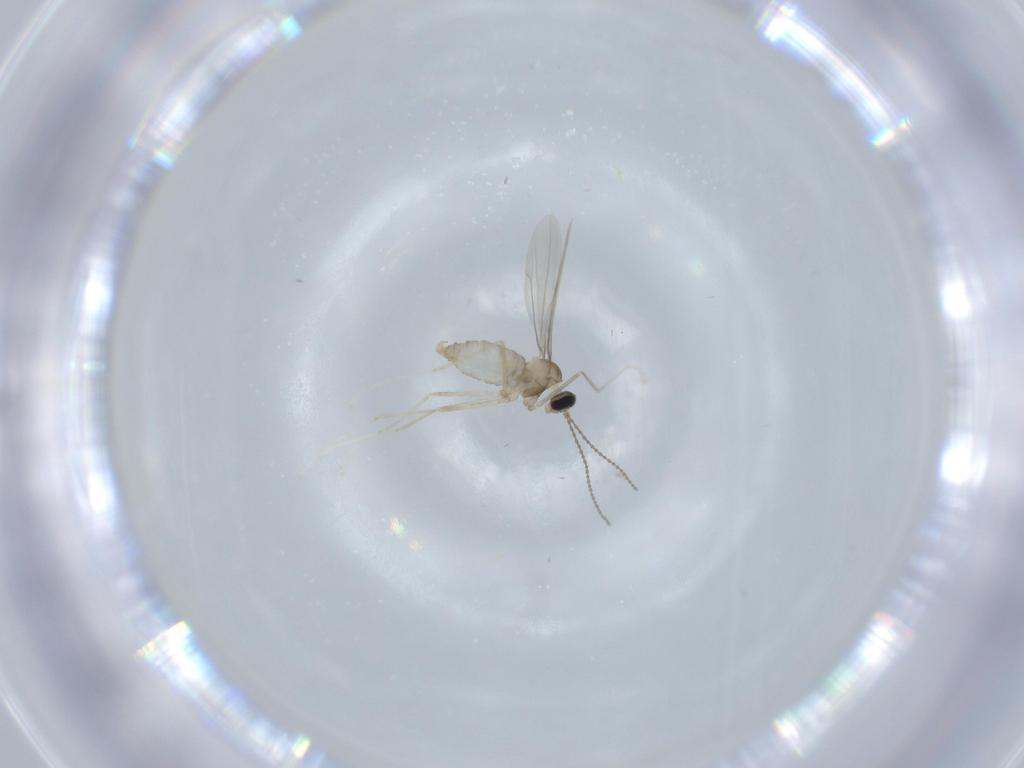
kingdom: Animalia
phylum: Arthropoda
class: Insecta
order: Diptera
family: Cecidomyiidae
